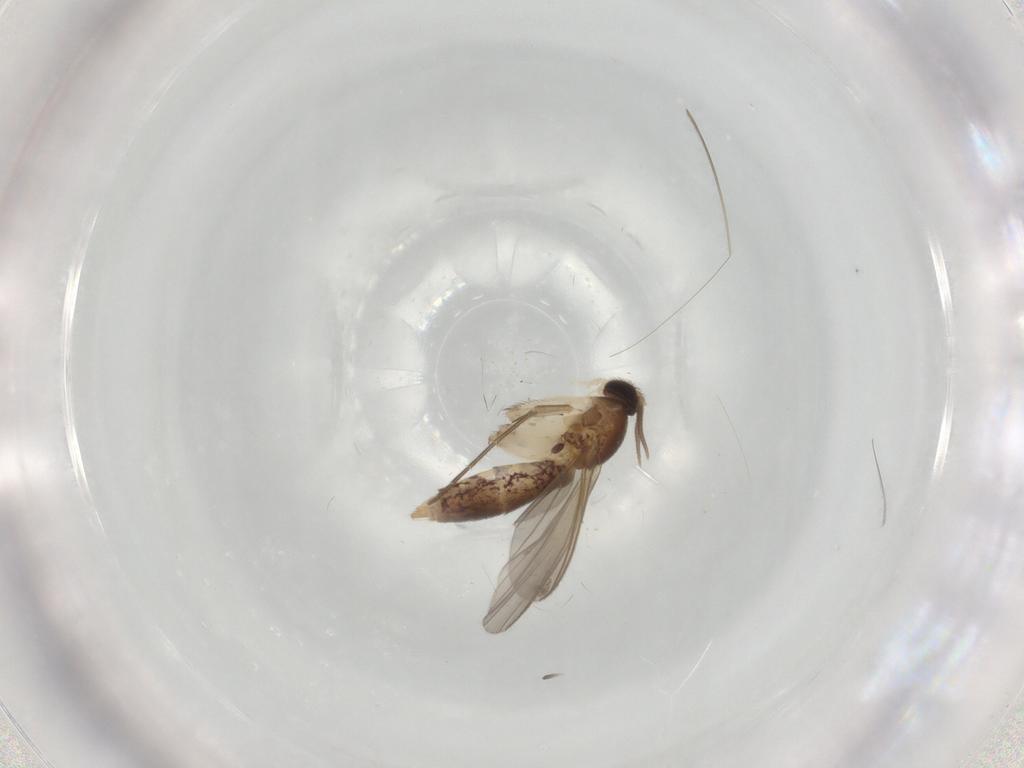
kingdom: Animalia
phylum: Arthropoda
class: Insecta
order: Diptera
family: Mycetophilidae
